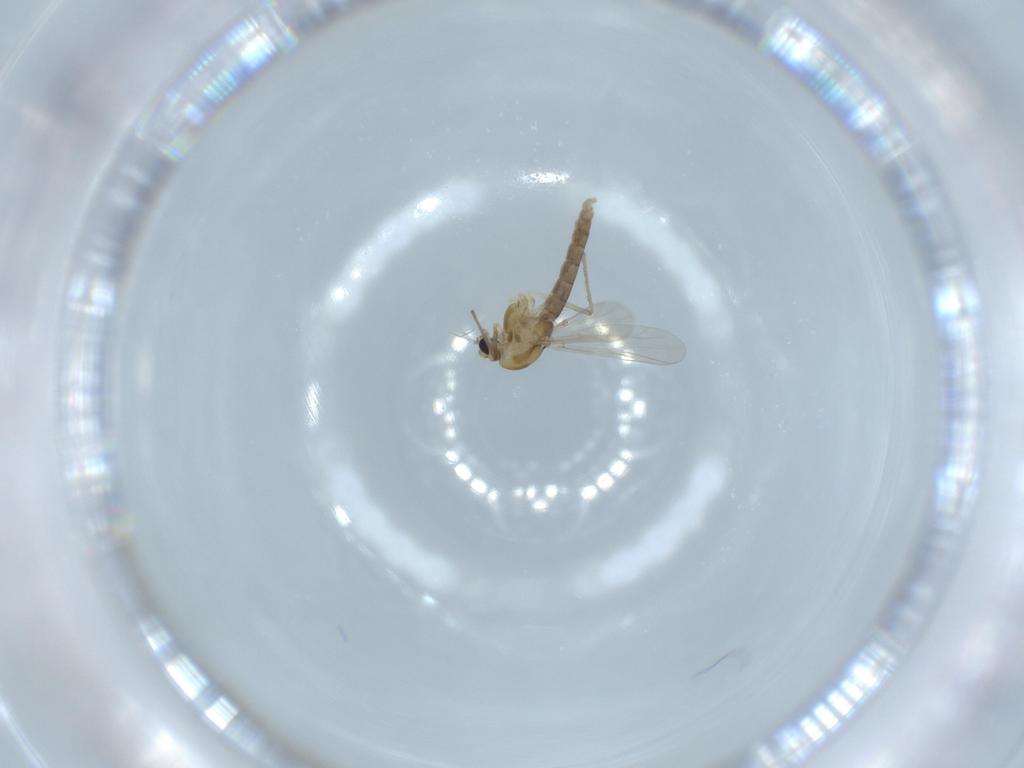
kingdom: Animalia
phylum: Arthropoda
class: Insecta
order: Diptera
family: Chironomidae
